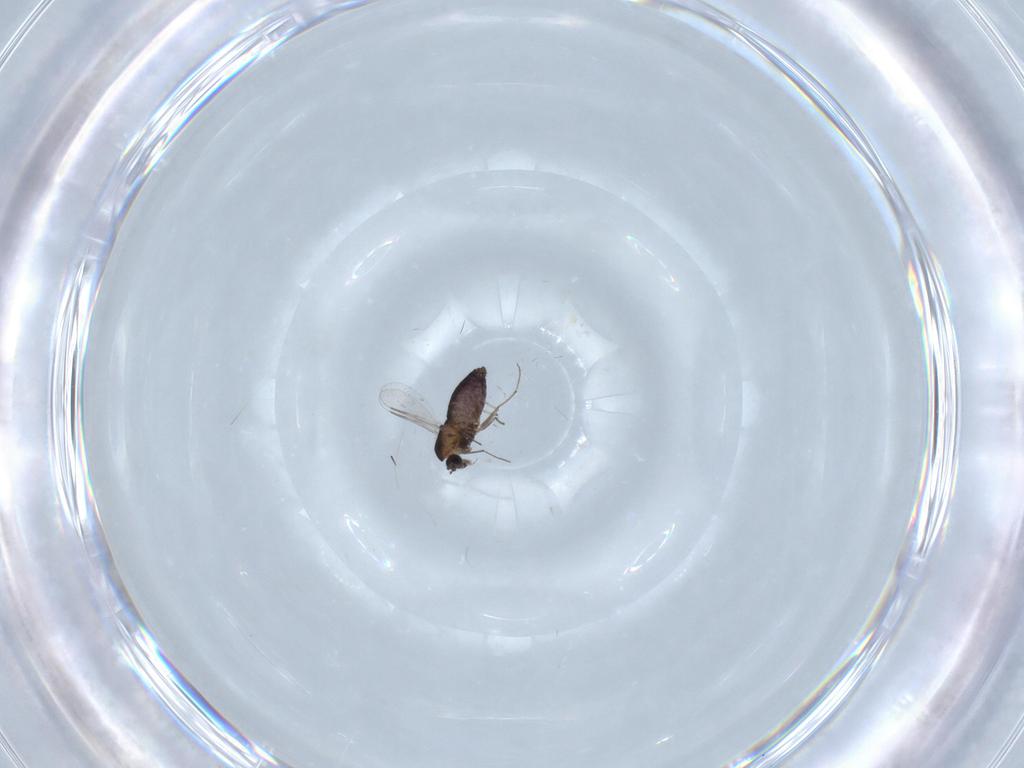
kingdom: Animalia
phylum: Arthropoda
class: Insecta
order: Diptera
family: Chironomidae
